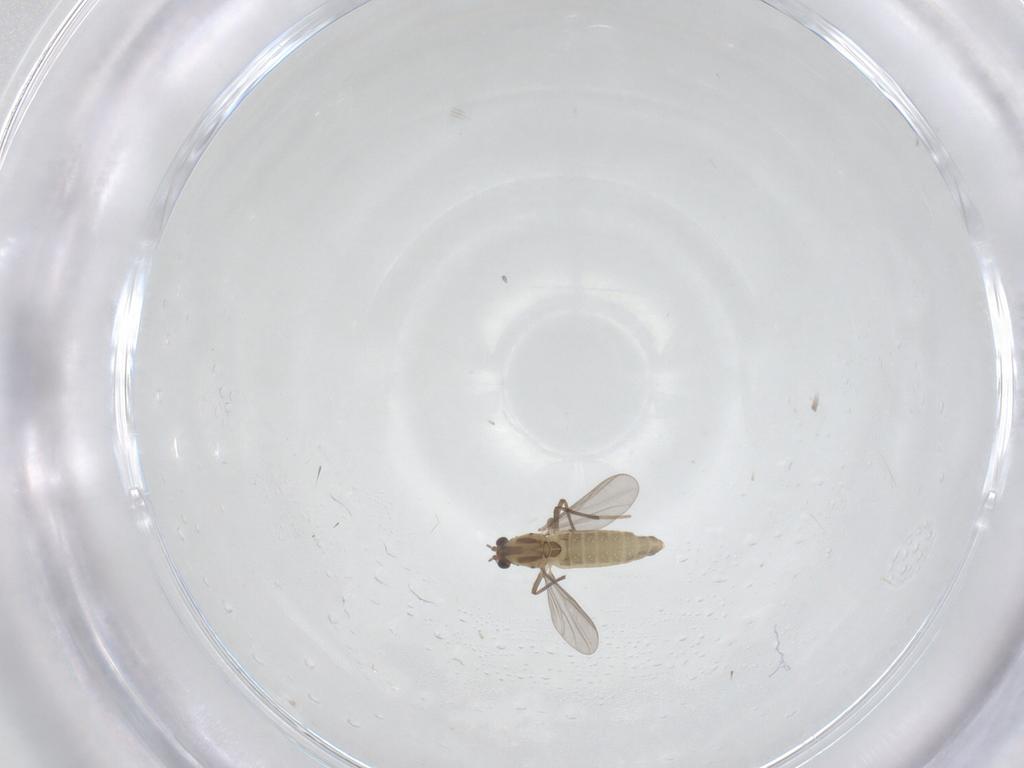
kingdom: Animalia
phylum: Arthropoda
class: Insecta
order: Diptera
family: Chironomidae
